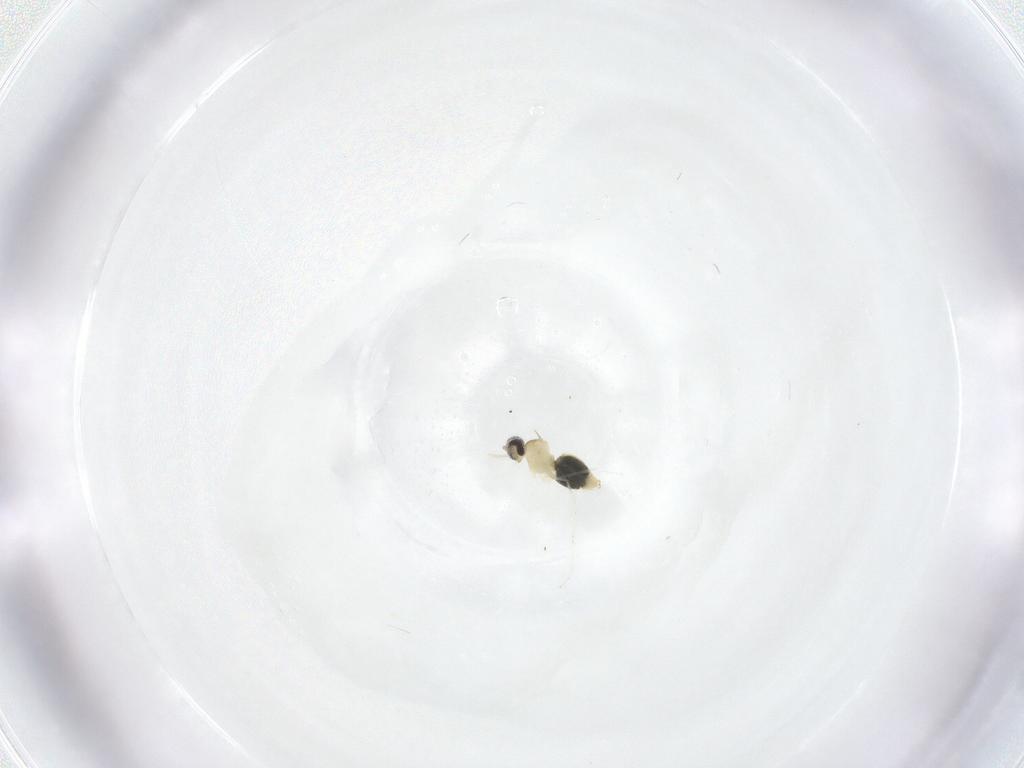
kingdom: Animalia
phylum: Arthropoda
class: Insecta
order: Diptera
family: Cecidomyiidae
